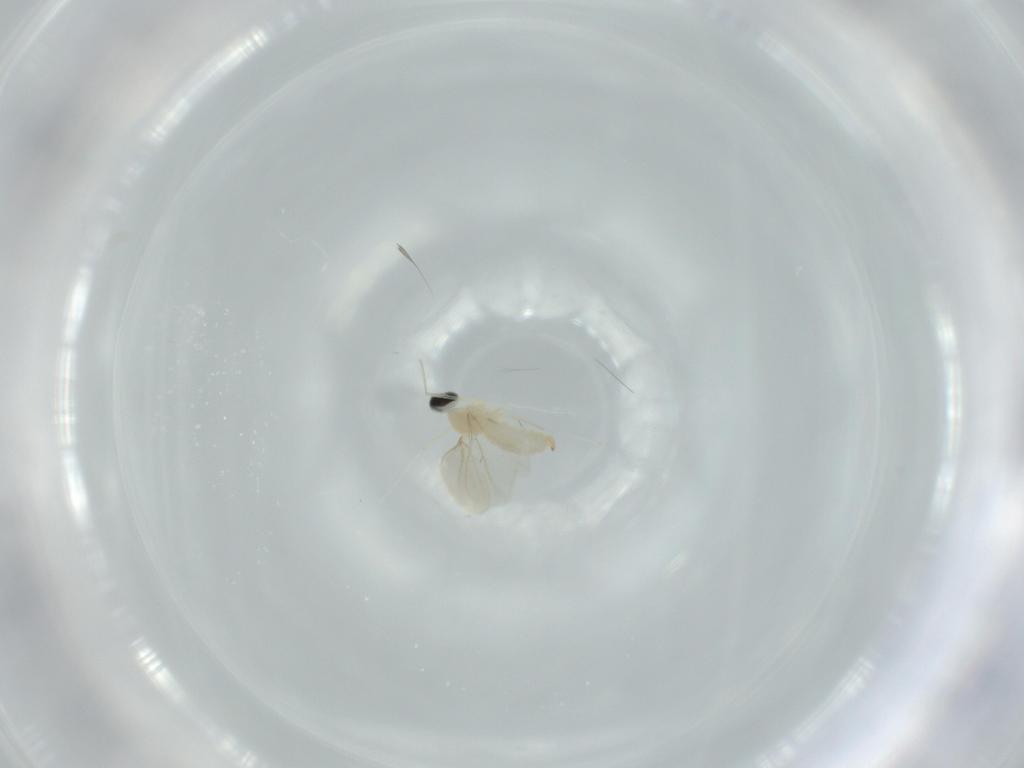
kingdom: Animalia
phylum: Arthropoda
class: Insecta
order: Diptera
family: Cecidomyiidae
